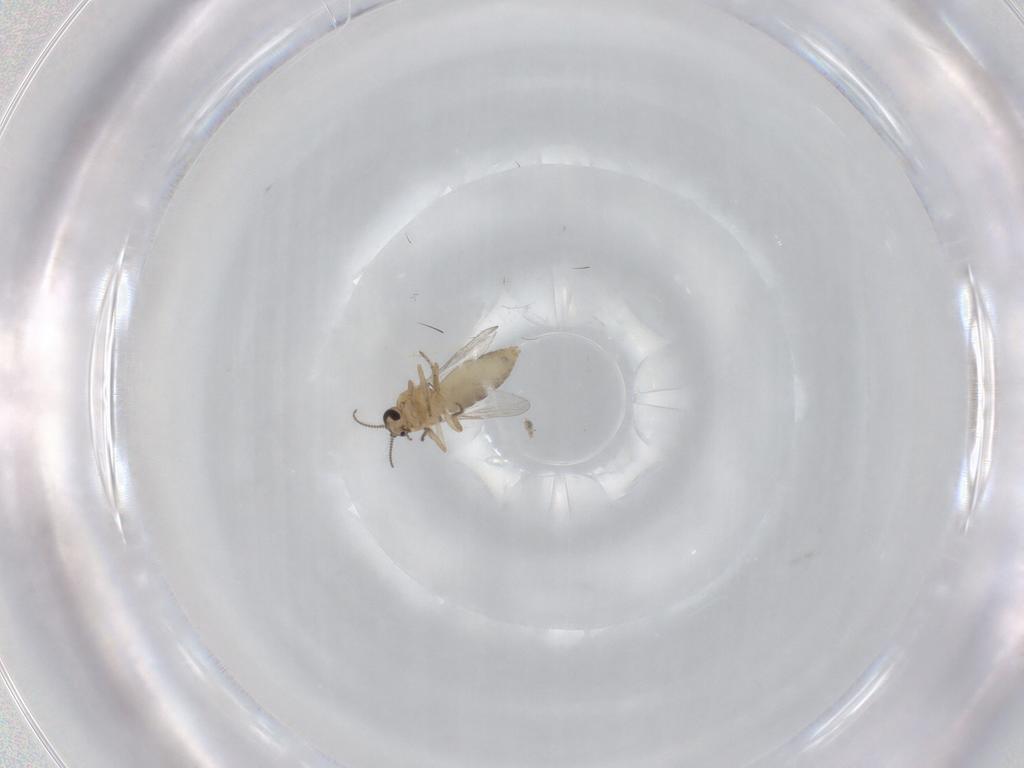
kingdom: Animalia
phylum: Arthropoda
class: Insecta
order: Diptera
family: Ceratopogonidae
